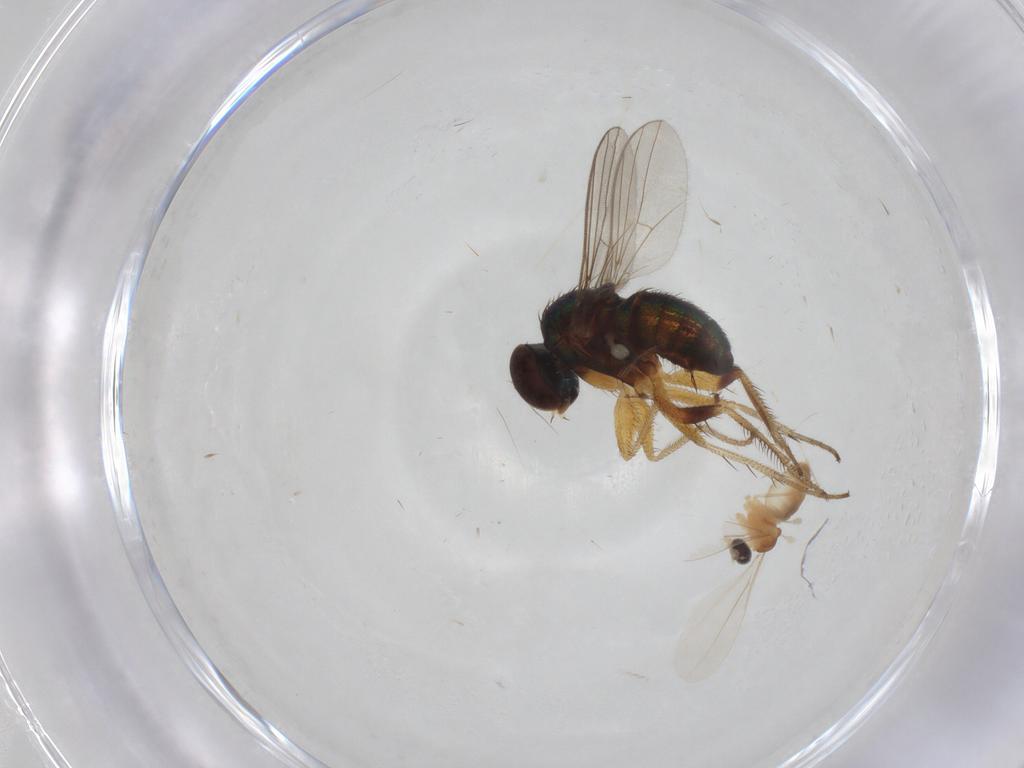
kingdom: Animalia
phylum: Arthropoda
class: Insecta
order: Diptera
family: Cecidomyiidae
